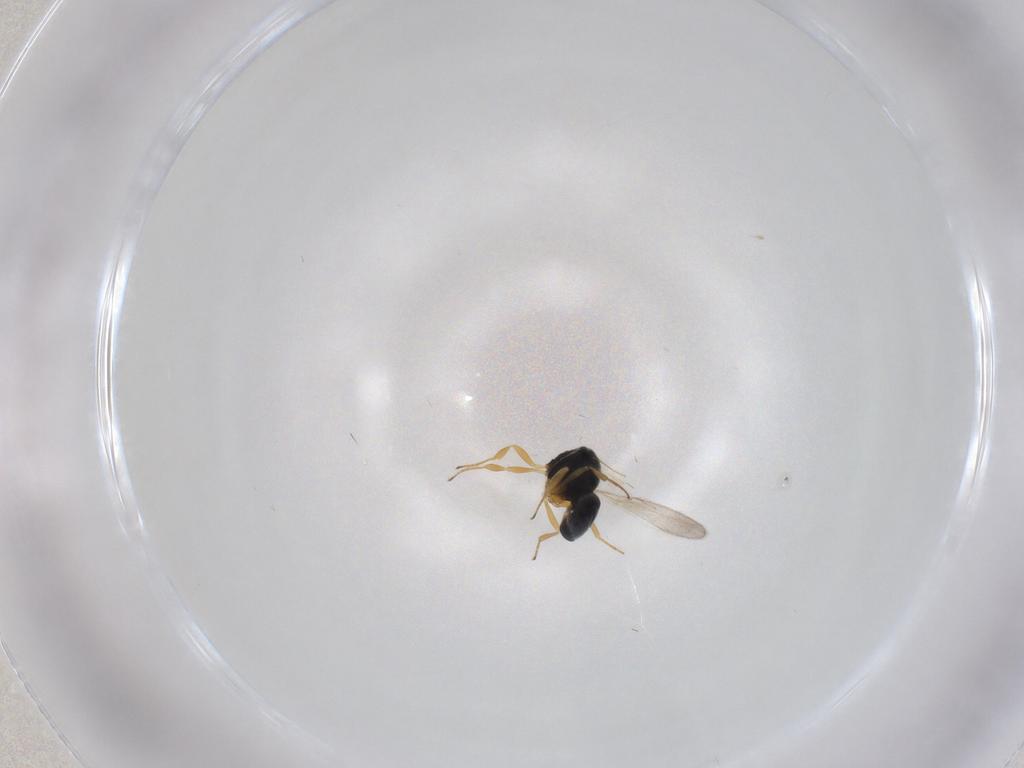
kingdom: Animalia
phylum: Arthropoda
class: Insecta
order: Hymenoptera
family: Scelionidae
